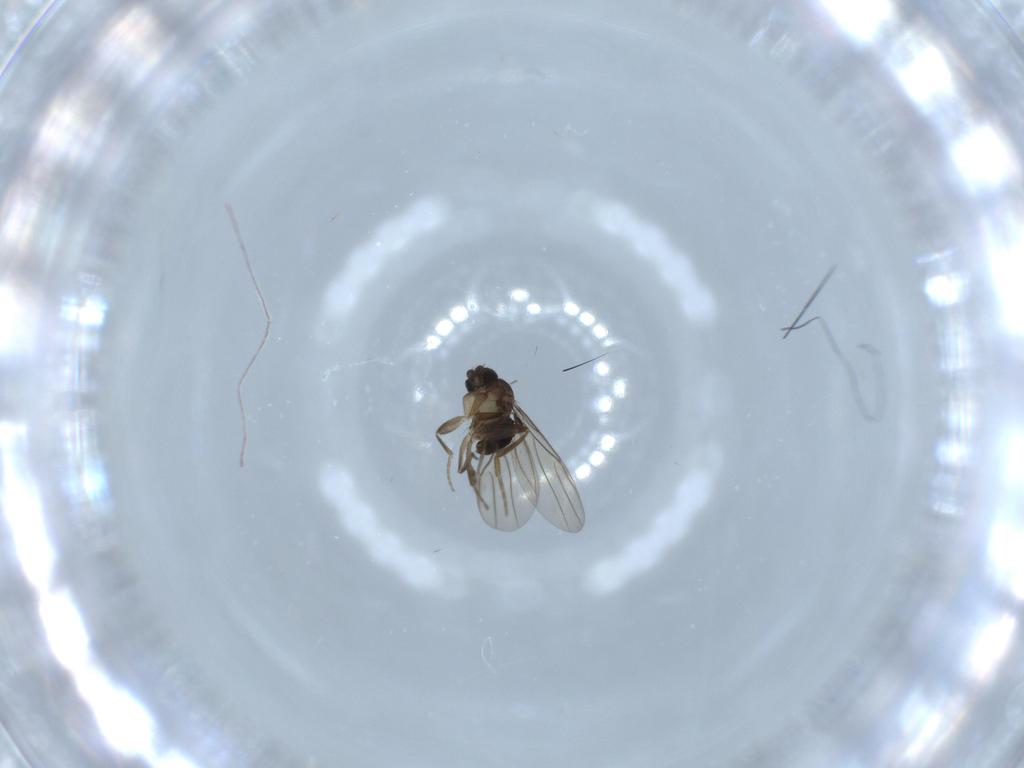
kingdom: Animalia
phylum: Arthropoda
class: Insecta
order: Diptera
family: Phoridae
